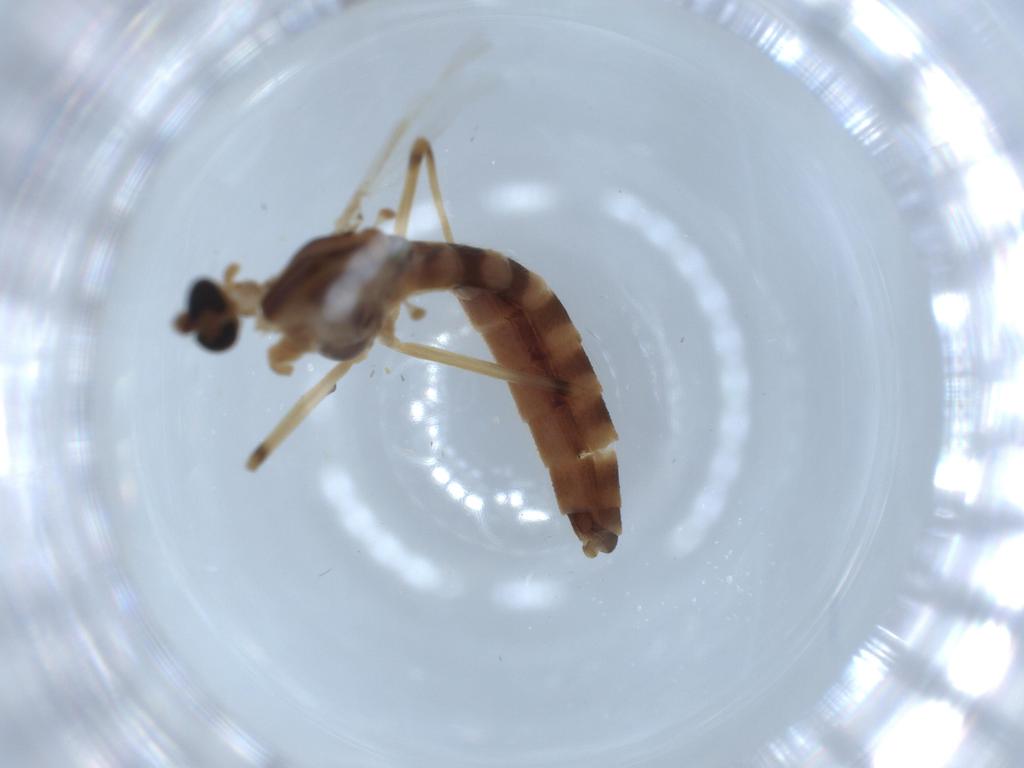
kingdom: Animalia
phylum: Arthropoda
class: Insecta
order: Diptera
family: Chironomidae
